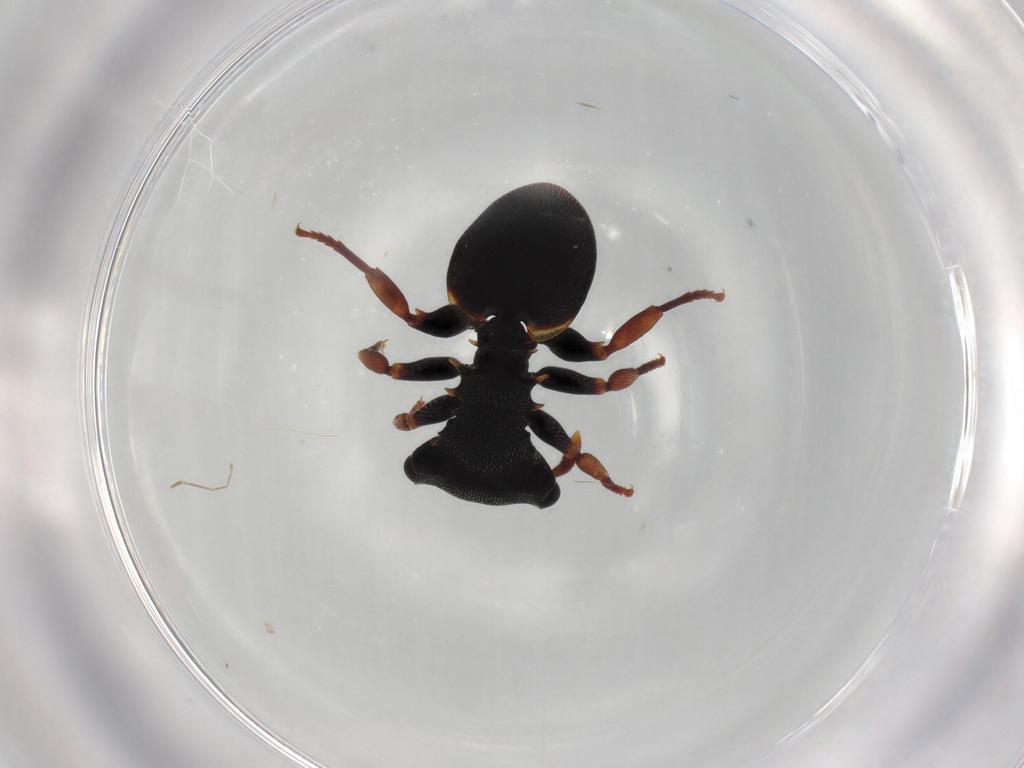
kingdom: Animalia
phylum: Arthropoda
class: Insecta
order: Hymenoptera
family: Formicidae
